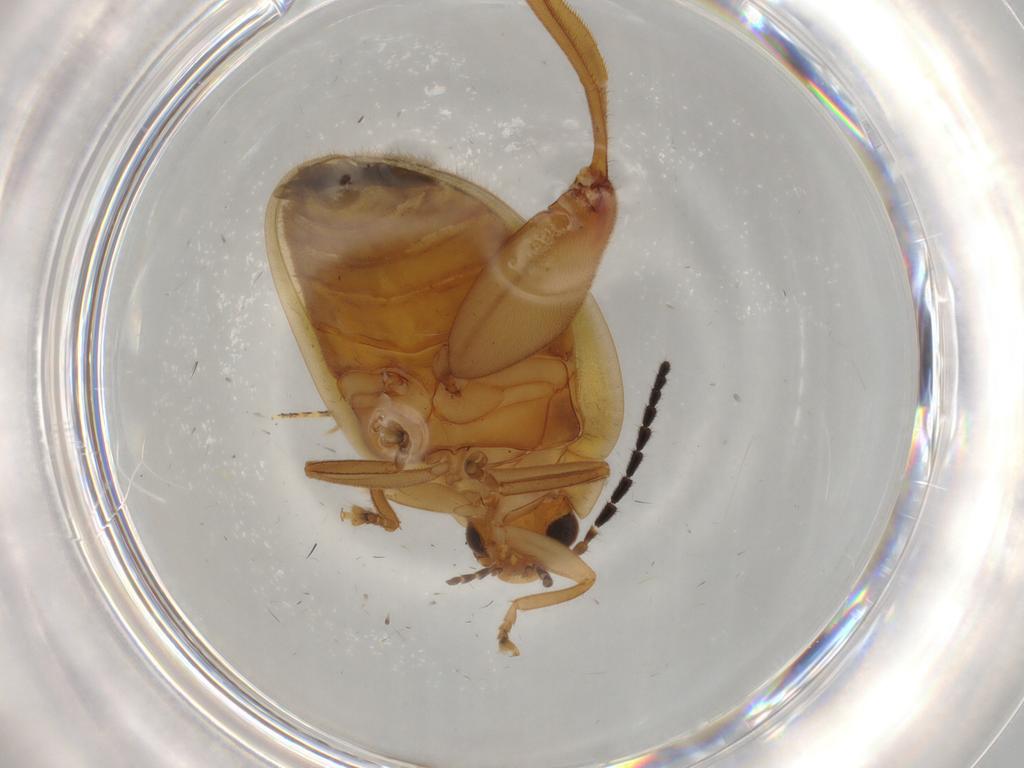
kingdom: Animalia
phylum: Arthropoda
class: Insecta
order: Coleoptera
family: Scirtidae
